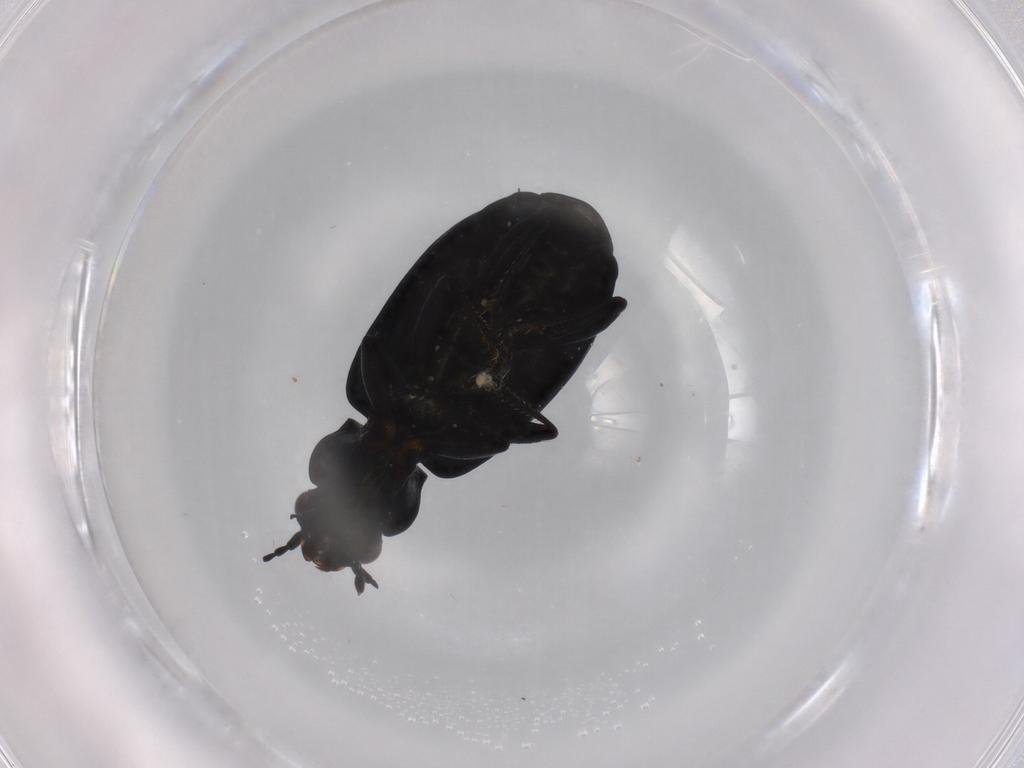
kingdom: Animalia
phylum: Arthropoda
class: Insecta
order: Coleoptera
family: Carabidae
